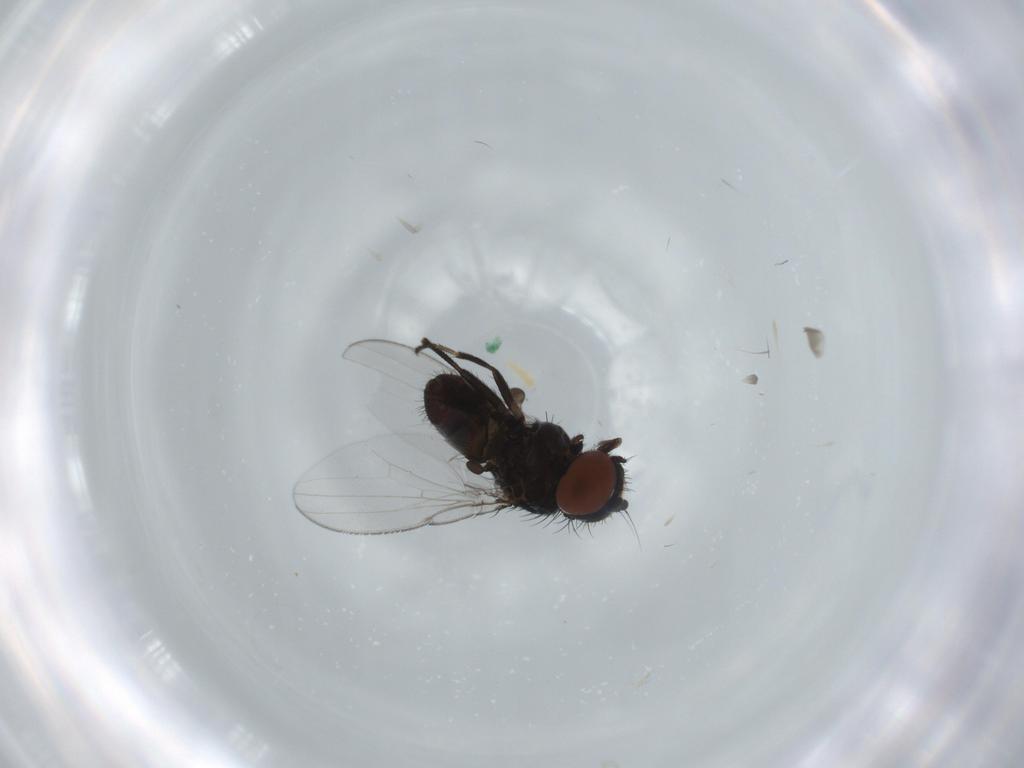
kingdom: Animalia
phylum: Arthropoda
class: Insecta
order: Diptera
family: Milichiidae
